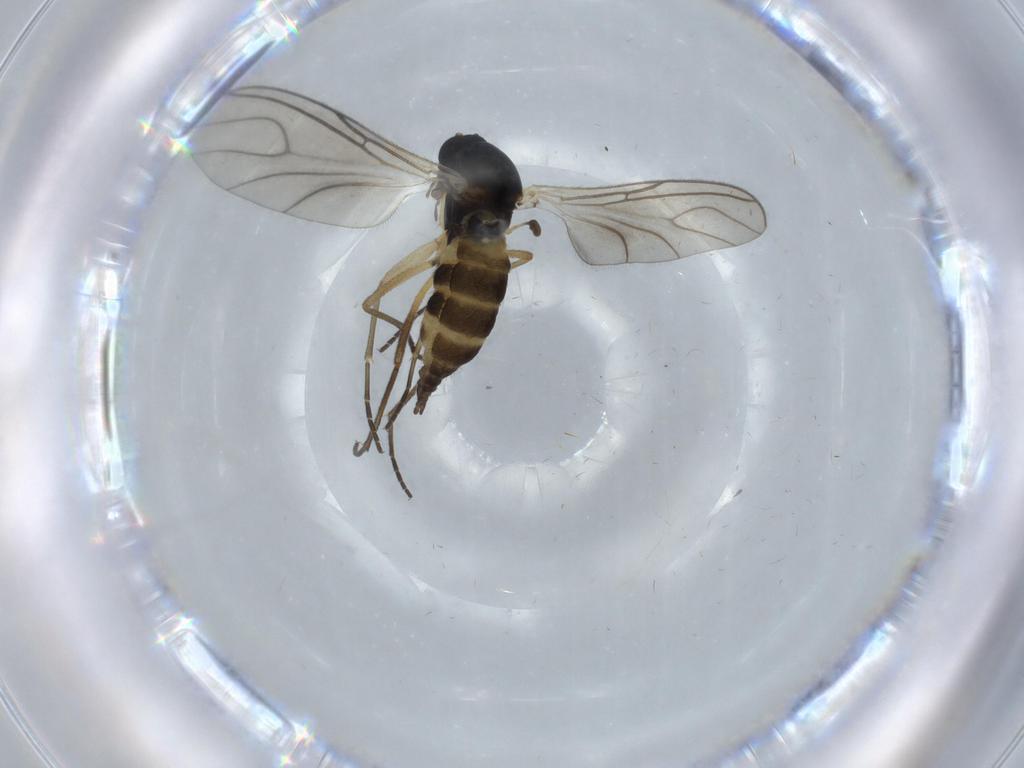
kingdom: Animalia
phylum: Arthropoda
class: Insecta
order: Diptera
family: Sciaridae
